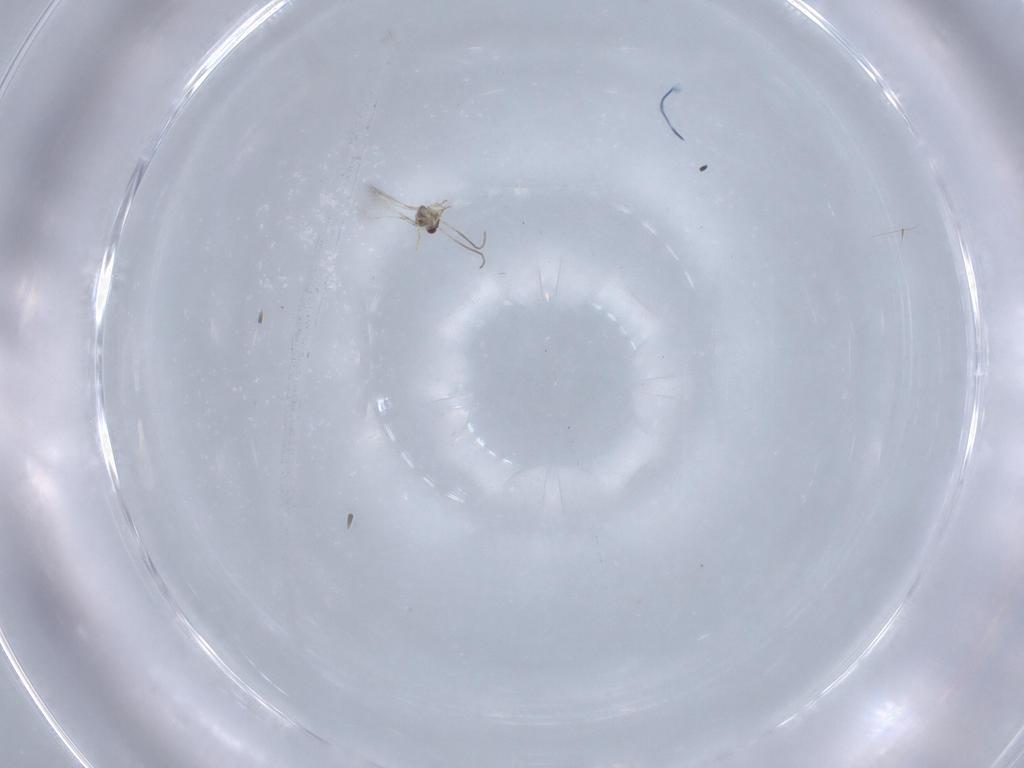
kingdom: Animalia
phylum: Arthropoda
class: Insecta
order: Hymenoptera
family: Mymaridae
